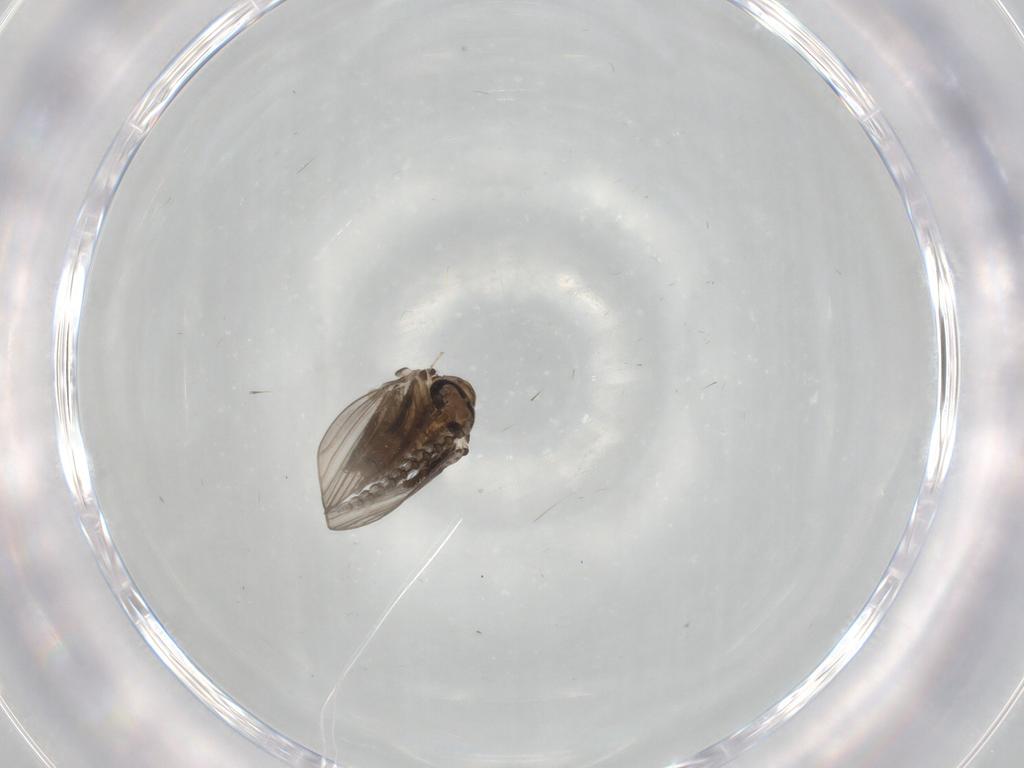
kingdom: Animalia
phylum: Arthropoda
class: Insecta
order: Diptera
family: Psychodidae
